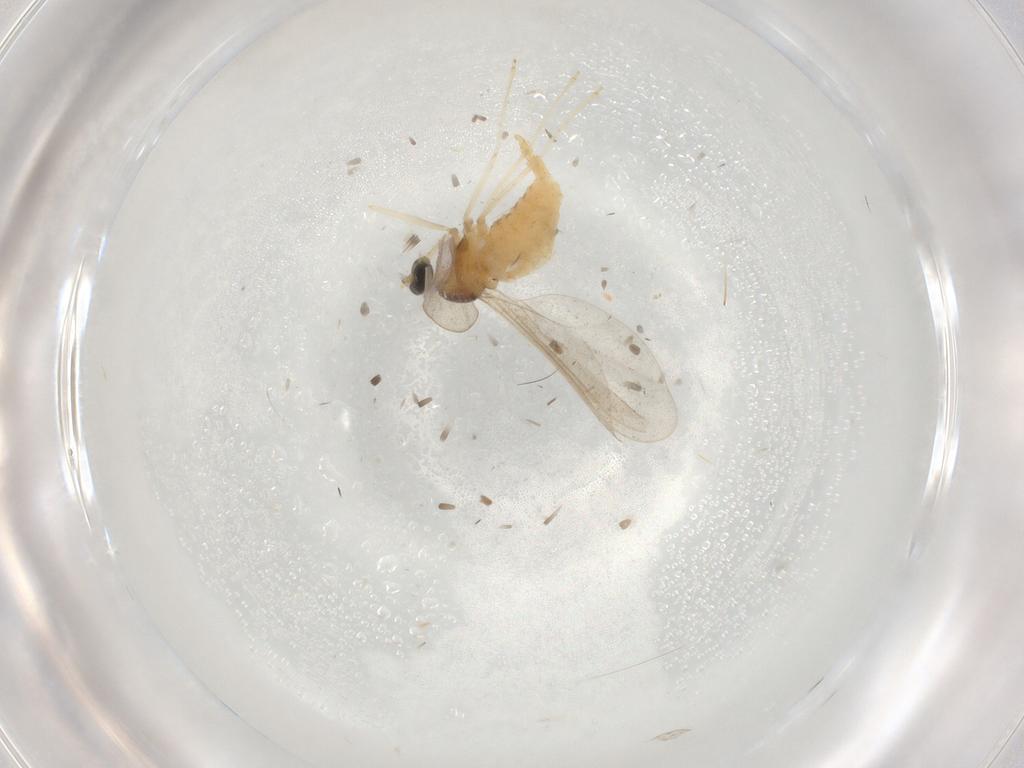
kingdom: Animalia
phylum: Arthropoda
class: Insecta
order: Diptera
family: Cecidomyiidae
